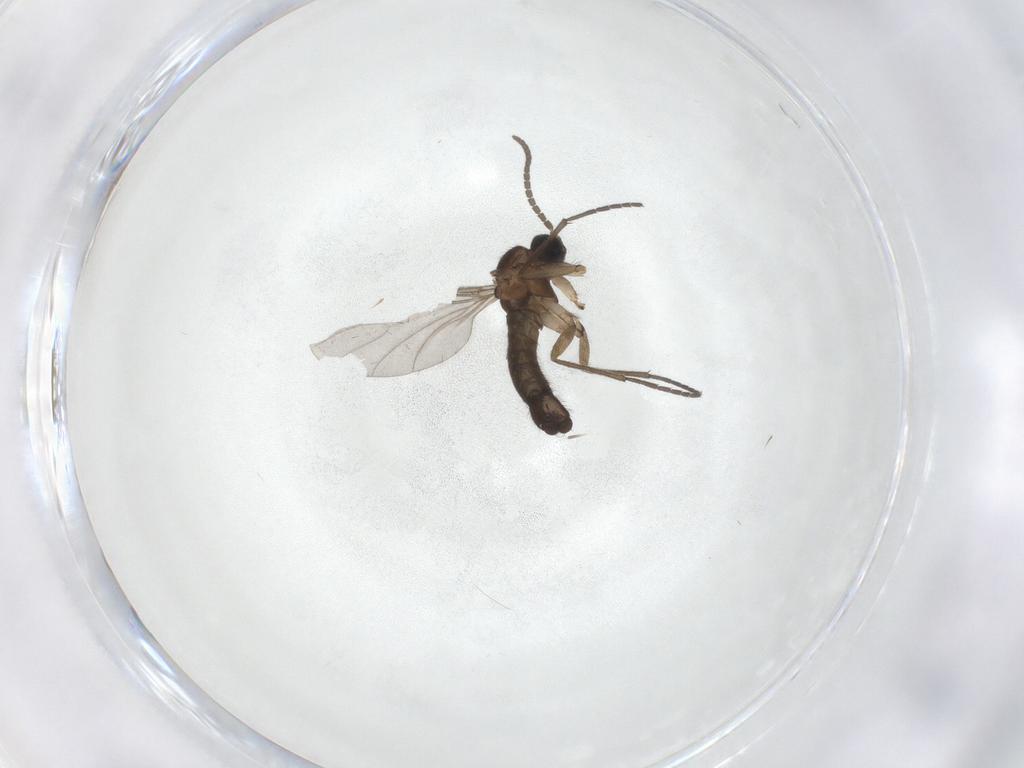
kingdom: Animalia
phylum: Arthropoda
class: Insecta
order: Diptera
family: Sciaridae
